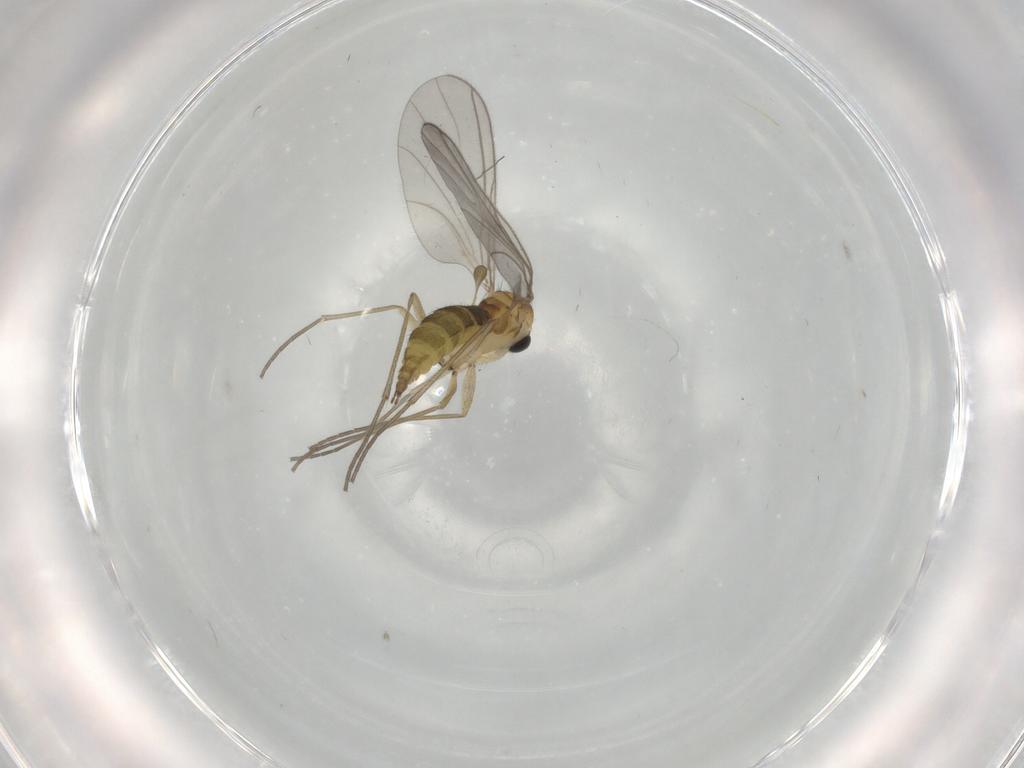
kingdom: Animalia
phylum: Arthropoda
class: Insecta
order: Diptera
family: Sciaridae
